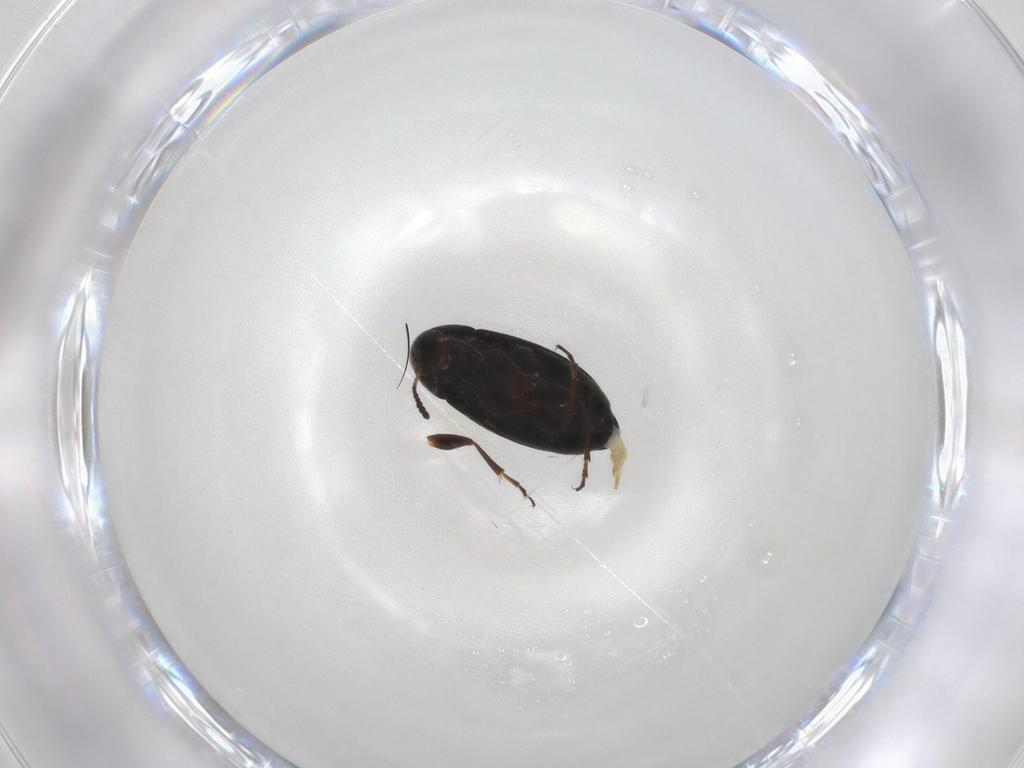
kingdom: Animalia
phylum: Arthropoda
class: Insecta
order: Coleoptera
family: Scraptiidae
